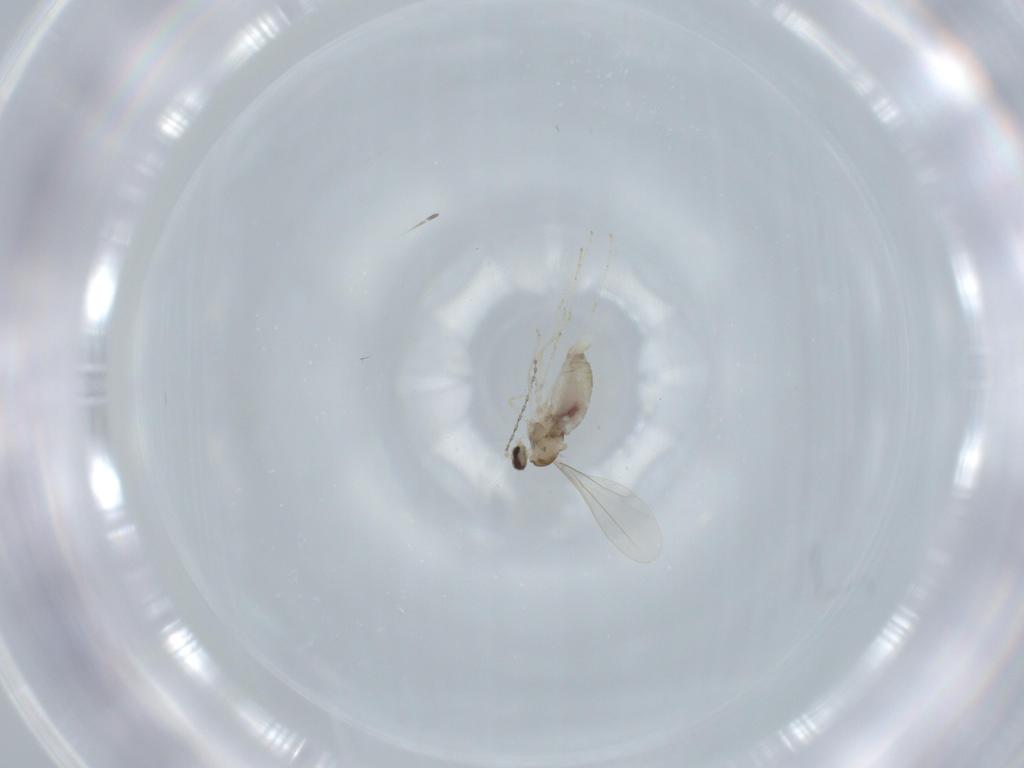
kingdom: Animalia
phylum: Arthropoda
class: Insecta
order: Diptera
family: Cecidomyiidae
